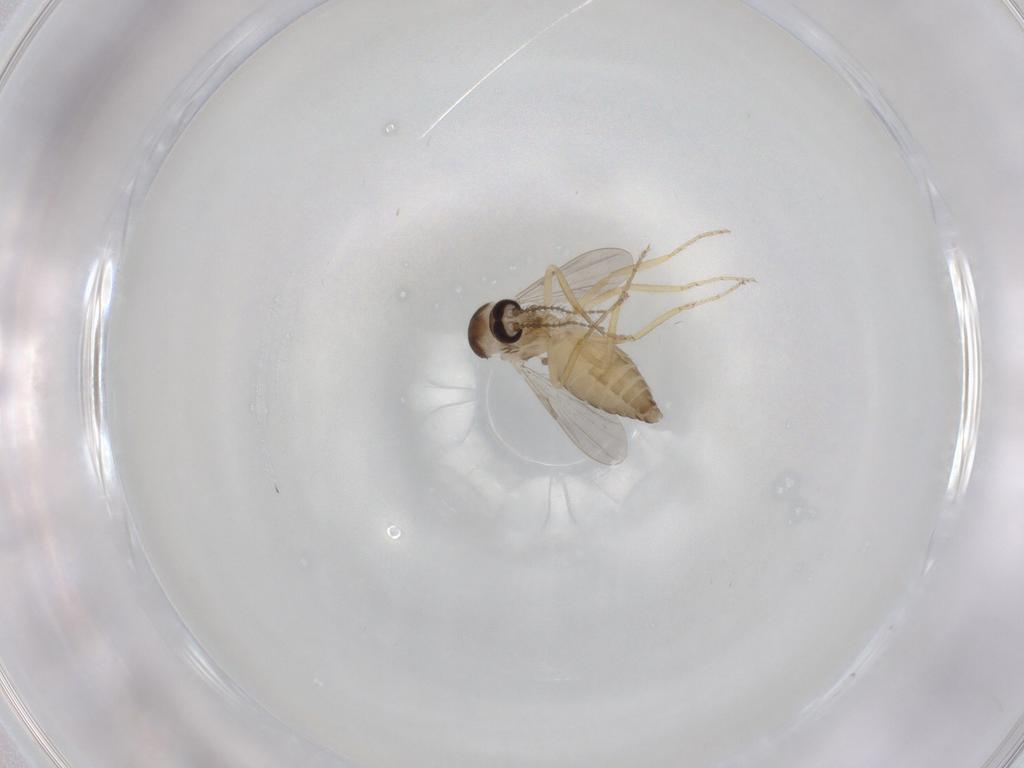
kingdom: Animalia
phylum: Arthropoda
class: Insecta
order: Diptera
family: Ceratopogonidae
